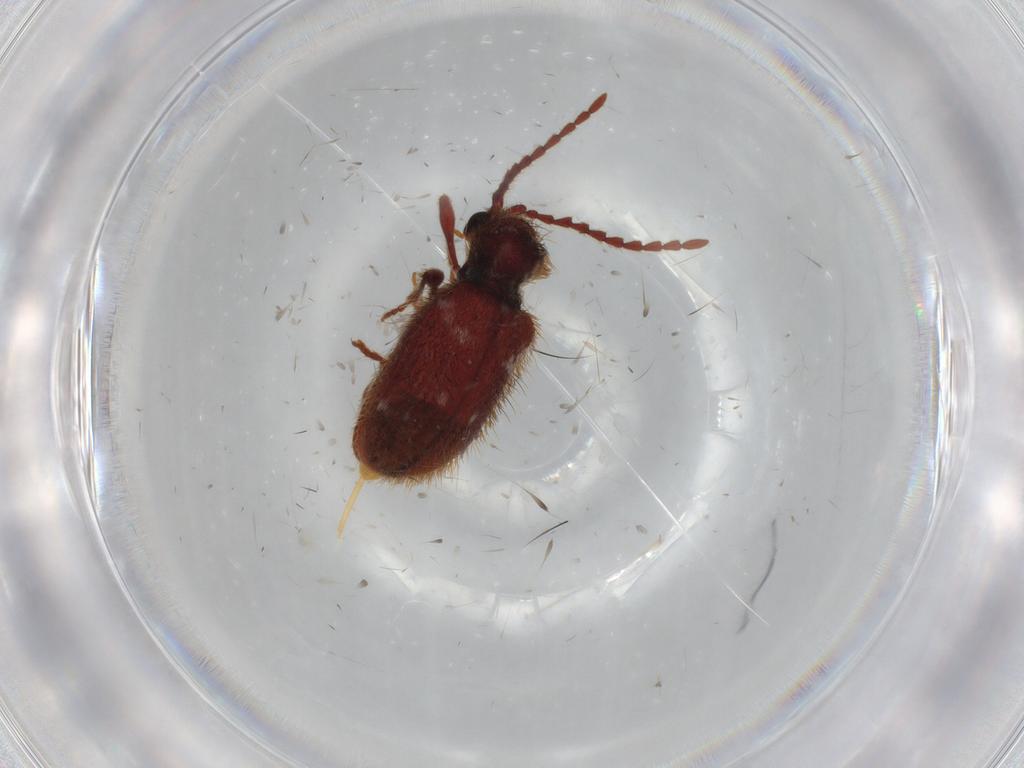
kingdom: Animalia
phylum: Arthropoda
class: Insecta
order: Coleoptera
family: Ptinidae
